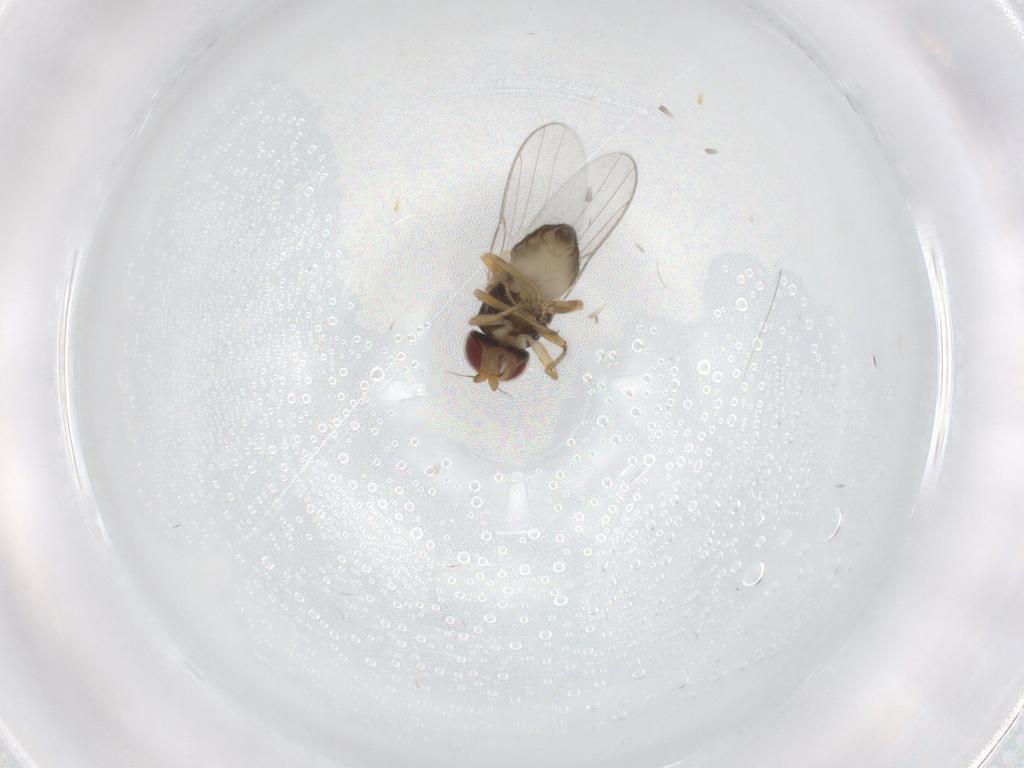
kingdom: Animalia
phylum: Arthropoda
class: Insecta
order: Diptera
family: Chloropidae
